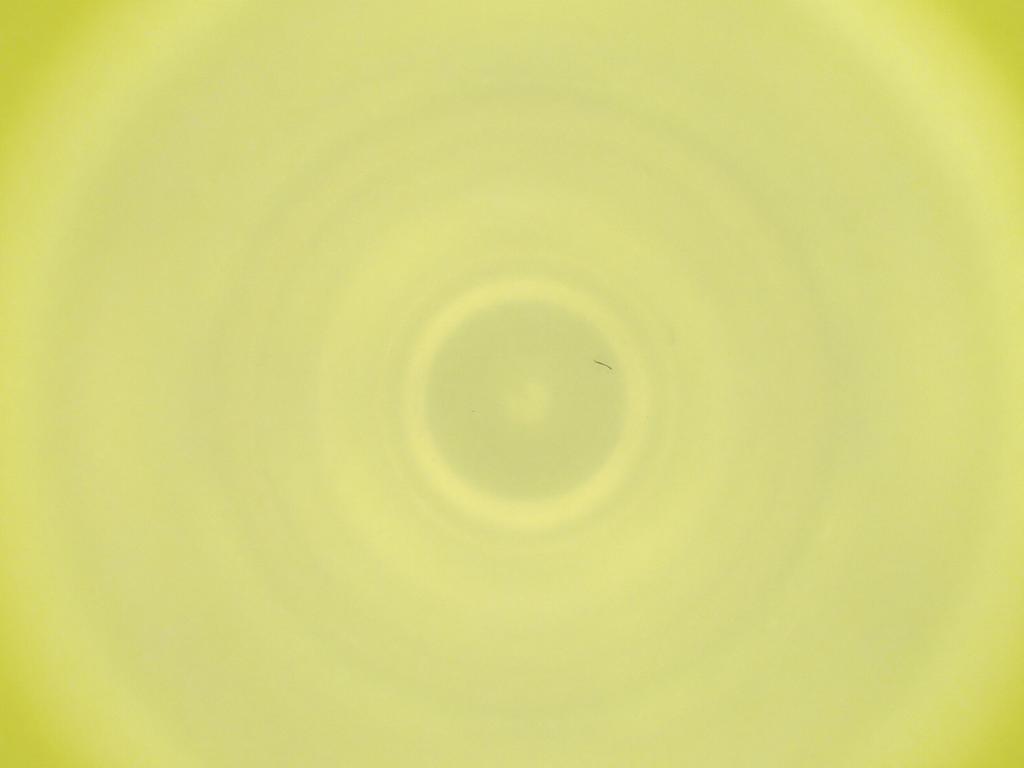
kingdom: Animalia
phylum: Arthropoda
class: Insecta
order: Diptera
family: Cecidomyiidae
